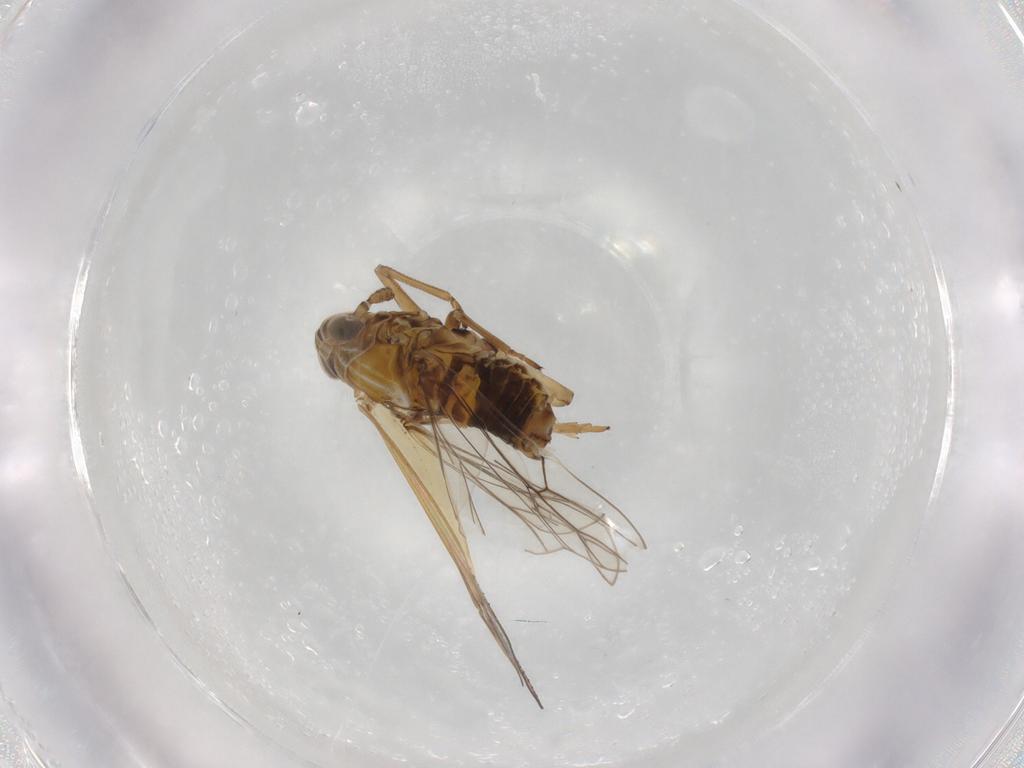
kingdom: Animalia
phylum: Arthropoda
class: Insecta
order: Hemiptera
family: Delphacidae
